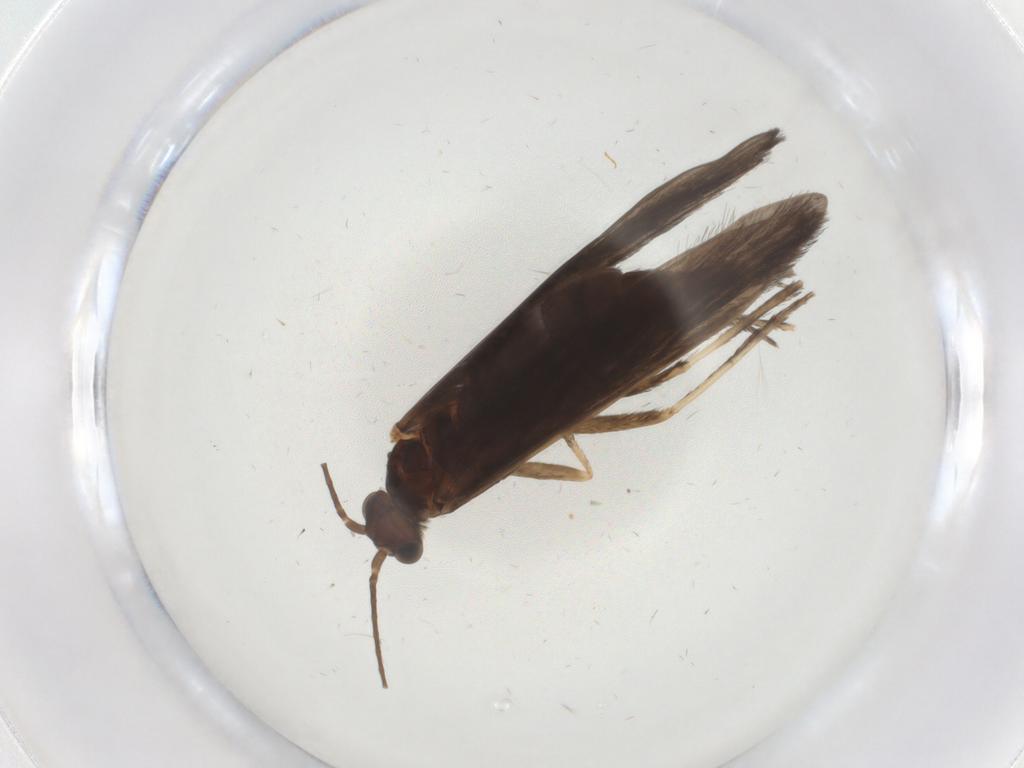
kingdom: Animalia
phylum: Arthropoda
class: Insecta
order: Trichoptera
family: Xiphocentronidae
